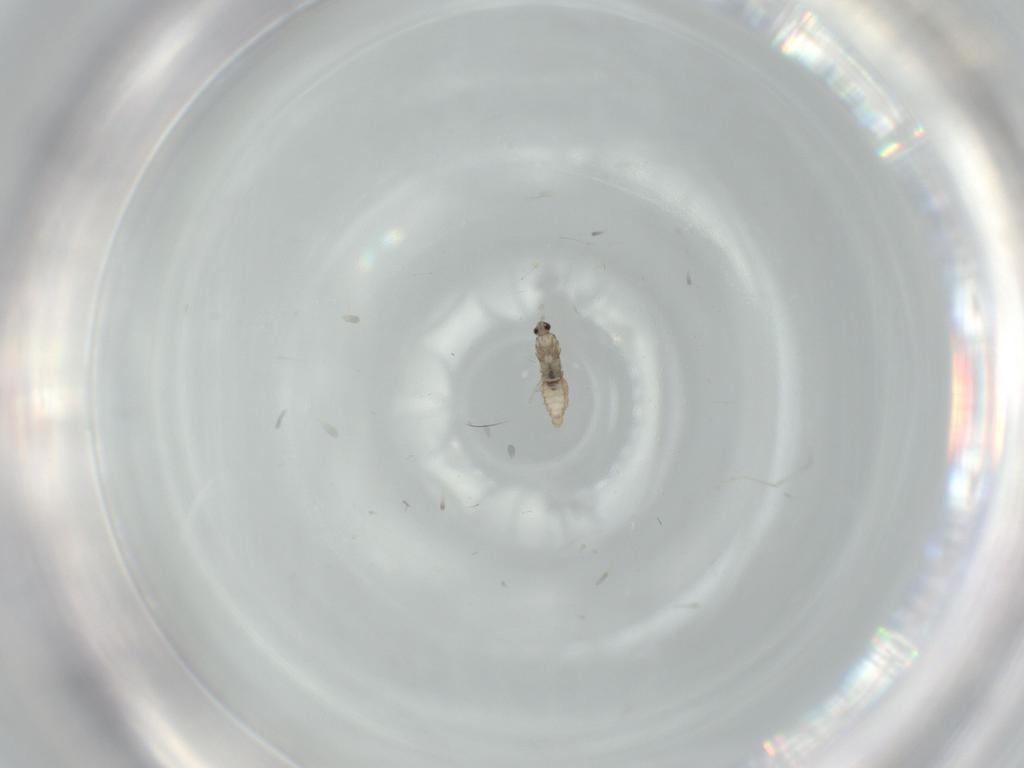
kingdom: Animalia
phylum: Arthropoda
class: Insecta
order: Diptera
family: Cecidomyiidae
